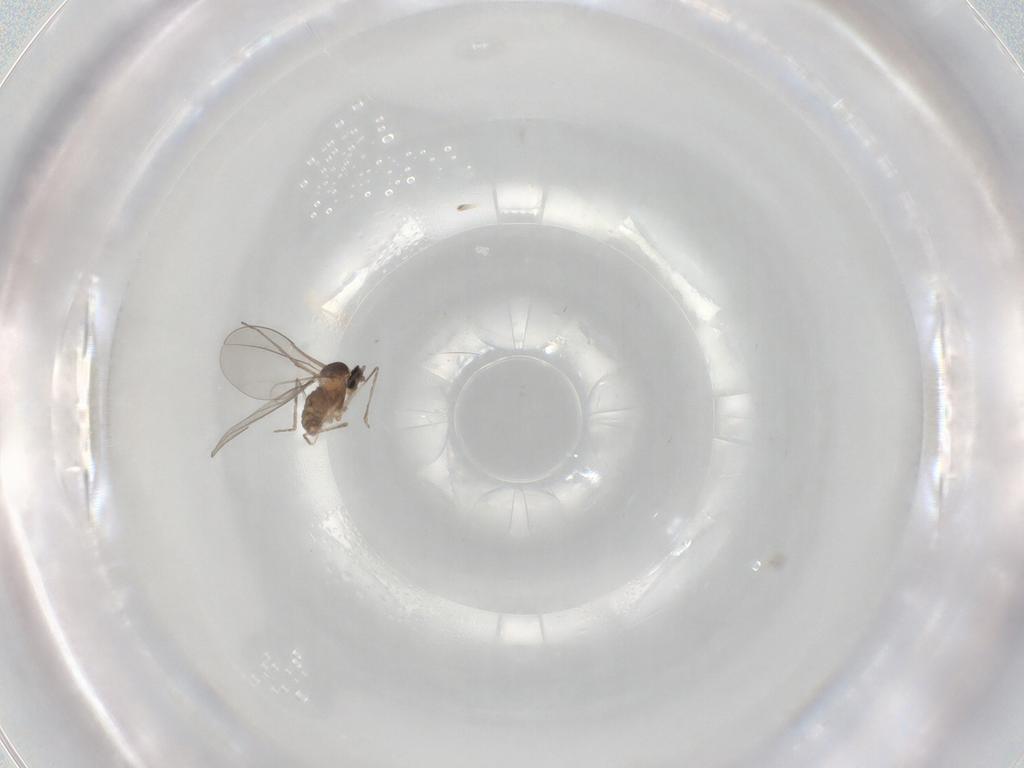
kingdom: Animalia
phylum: Arthropoda
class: Insecta
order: Diptera
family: Cecidomyiidae
